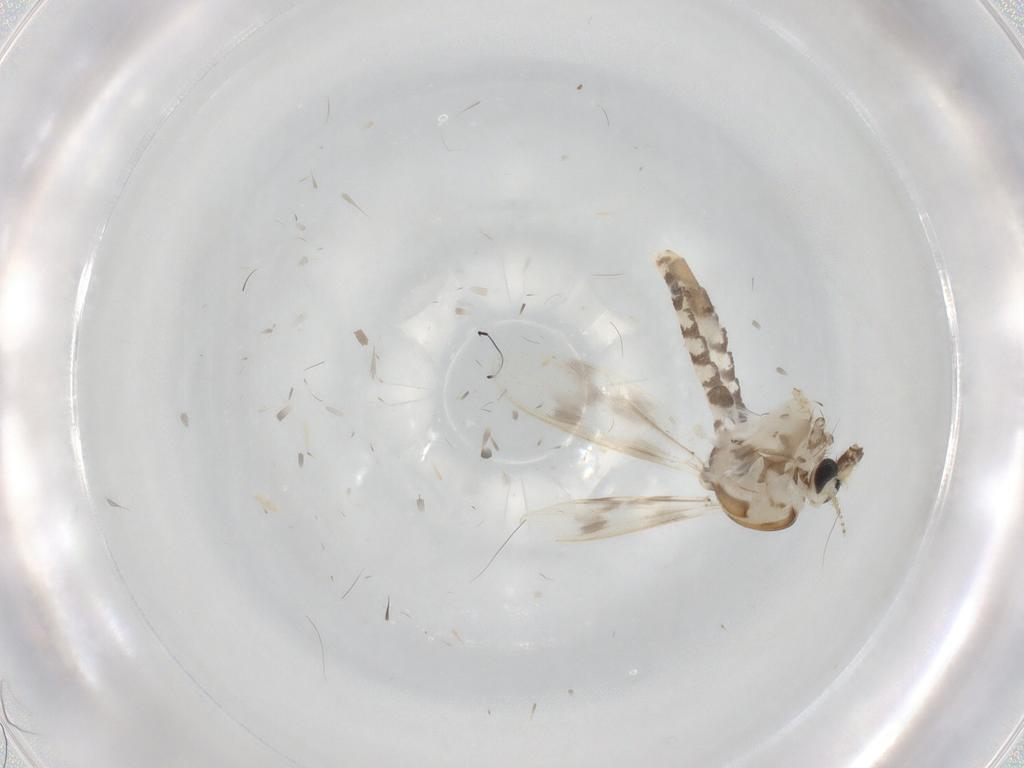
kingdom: Animalia
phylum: Arthropoda
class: Insecta
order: Diptera
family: Corethrellidae
